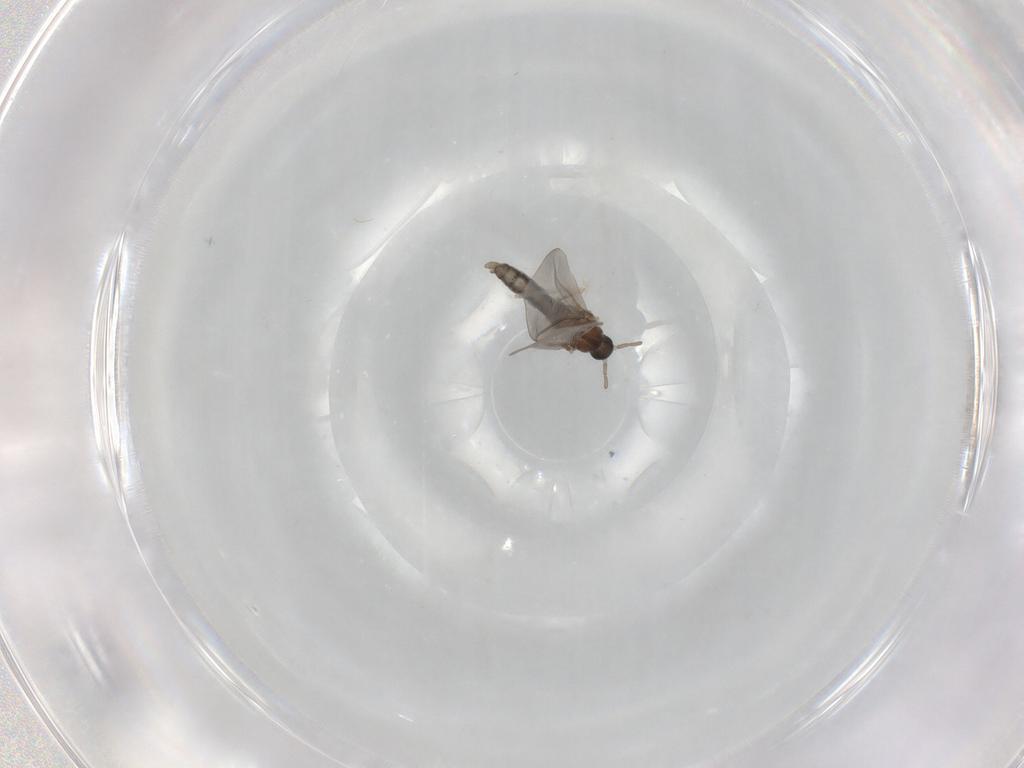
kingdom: Animalia
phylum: Arthropoda
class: Insecta
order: Diptera
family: Cecidomyiidae
